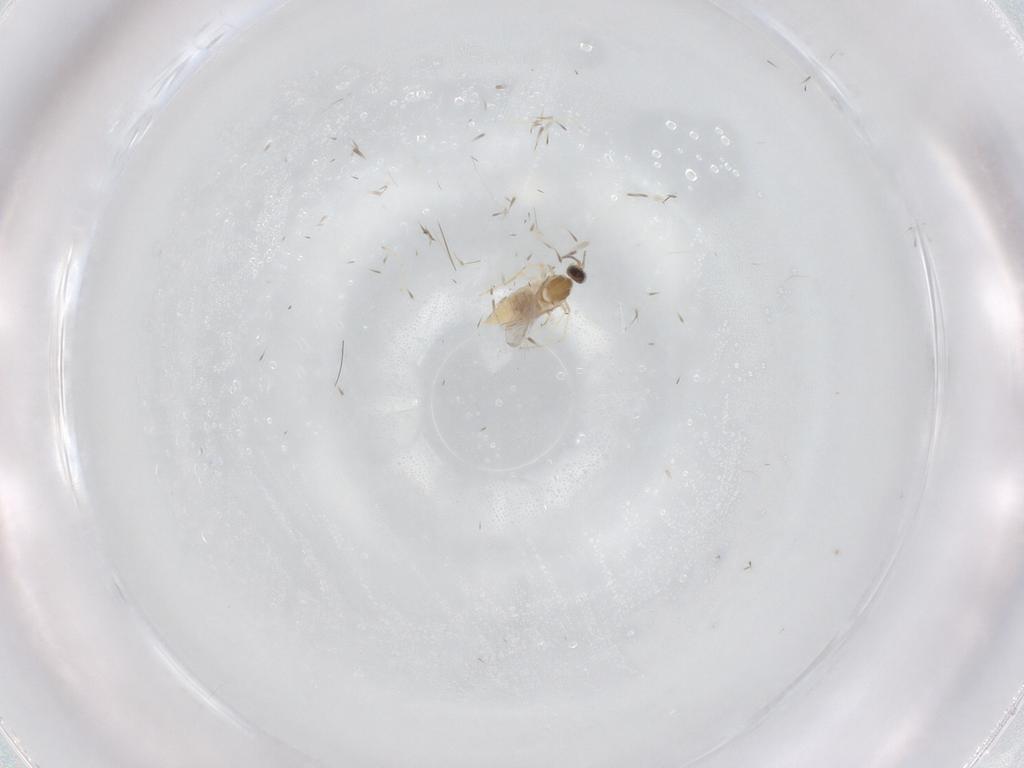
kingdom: Animalia
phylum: Arthropoda
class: Insecta
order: Diptera
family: Cecidomyiidae
